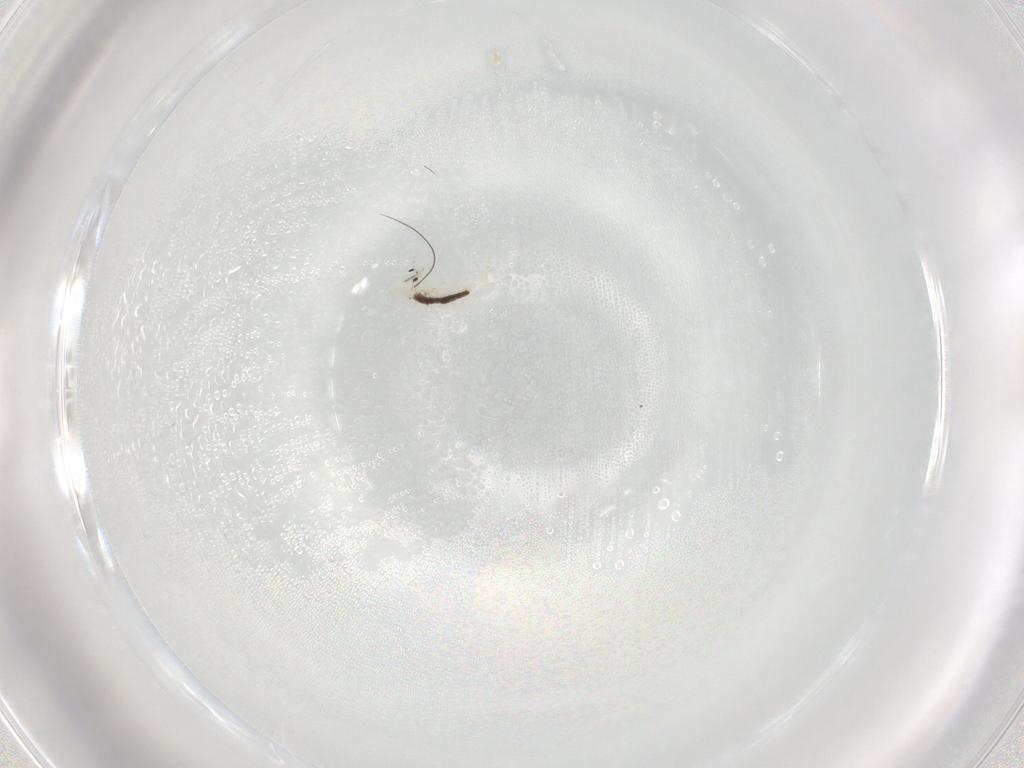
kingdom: Animalia
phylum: Arthropoda
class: Collembola
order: Entomobryomorpha
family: Entomobryidae
